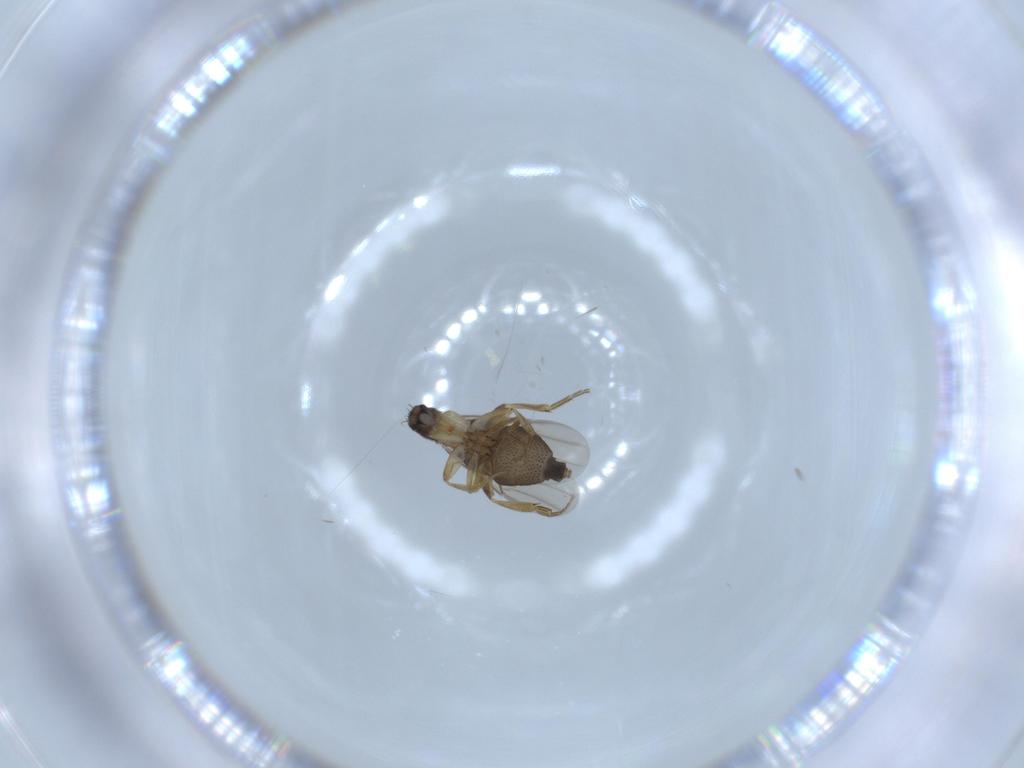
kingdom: Animalia
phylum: Arthropoda
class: Insecta
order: Diptera
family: Phoridae
